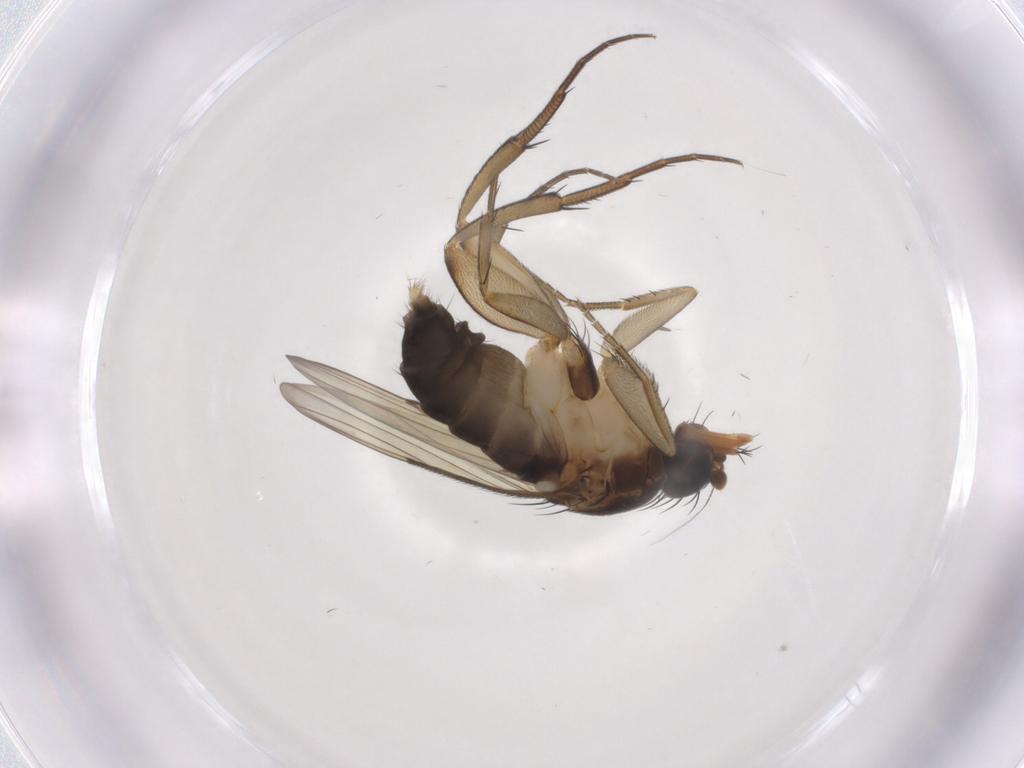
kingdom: Animalia
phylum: Arthropoda
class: Insecta
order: Diptera
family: Phoridae
